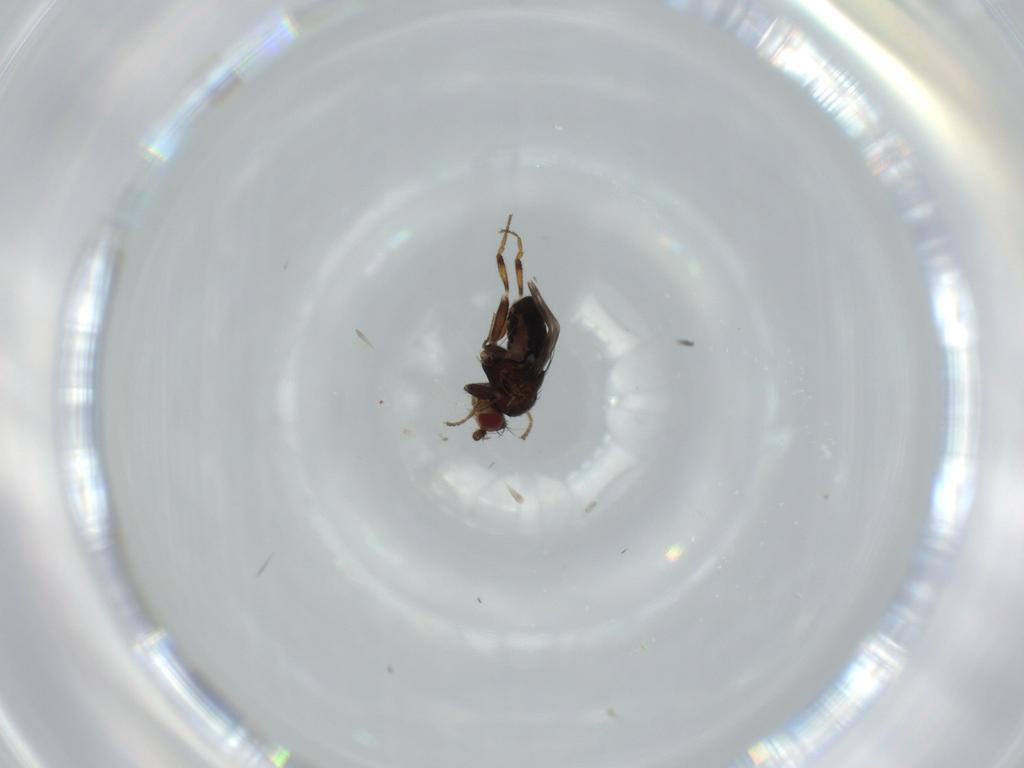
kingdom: Animalia
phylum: Arthropoda
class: Insecta
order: Diptera
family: Sphaeroceridae
